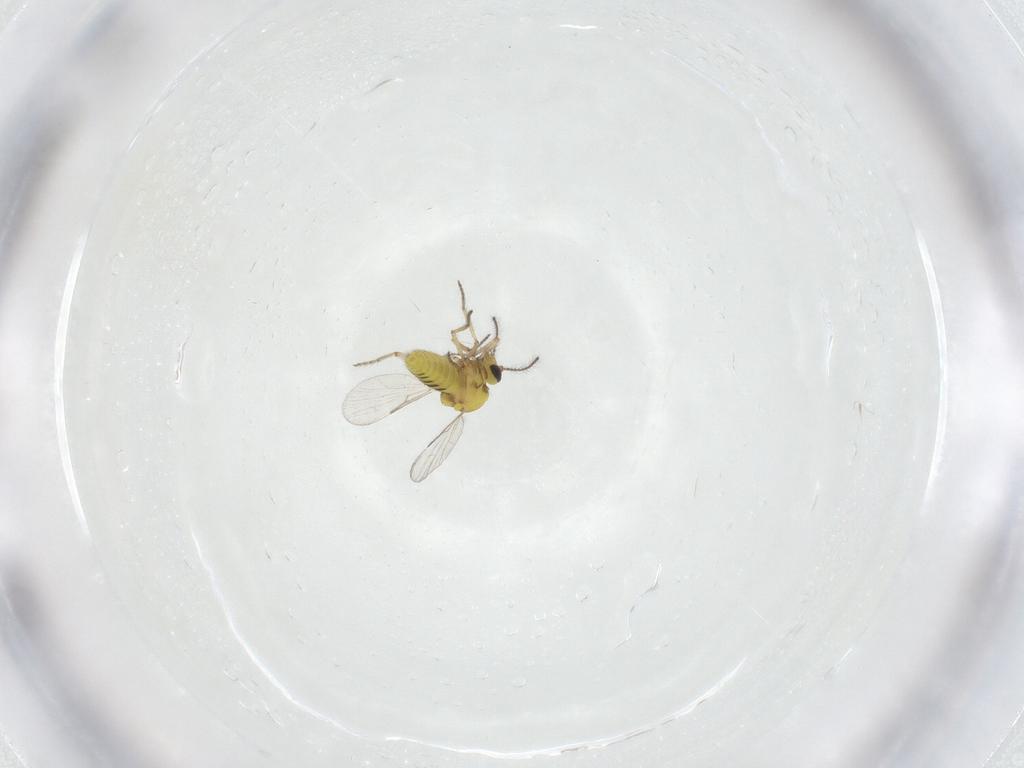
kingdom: Animalia
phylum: Arthropoda
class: Insecta
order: Diptera
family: Ceratopogonidae
